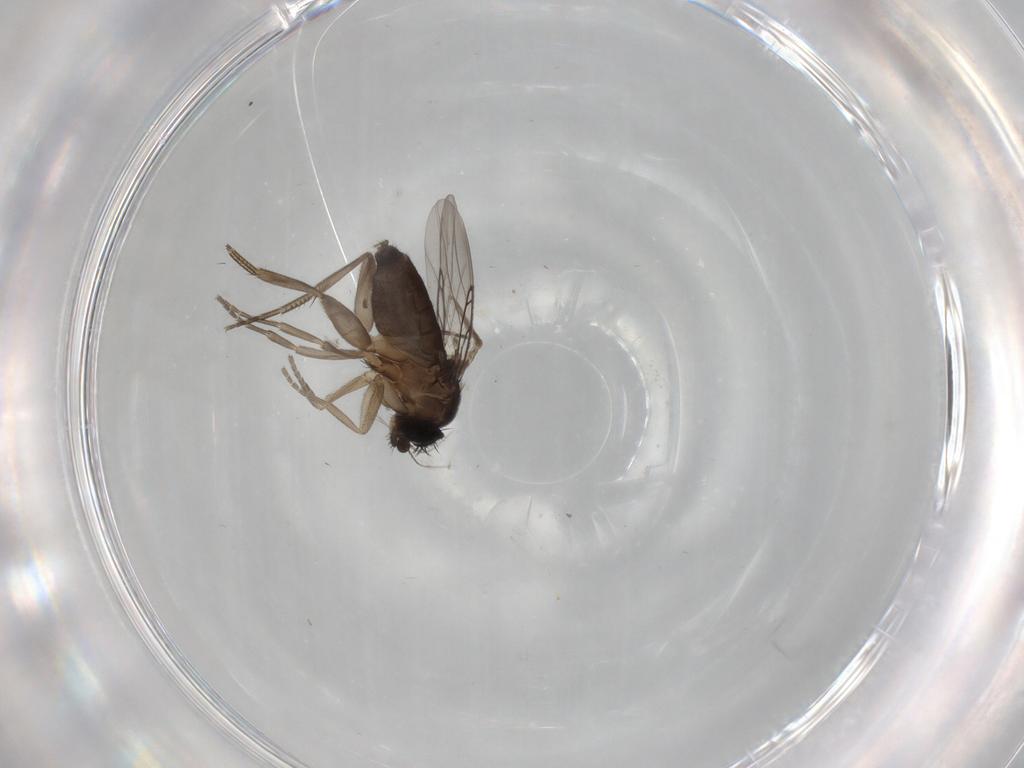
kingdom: Animalia
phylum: Arthropoda
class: Insecta
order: Diptera
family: Phoridae
